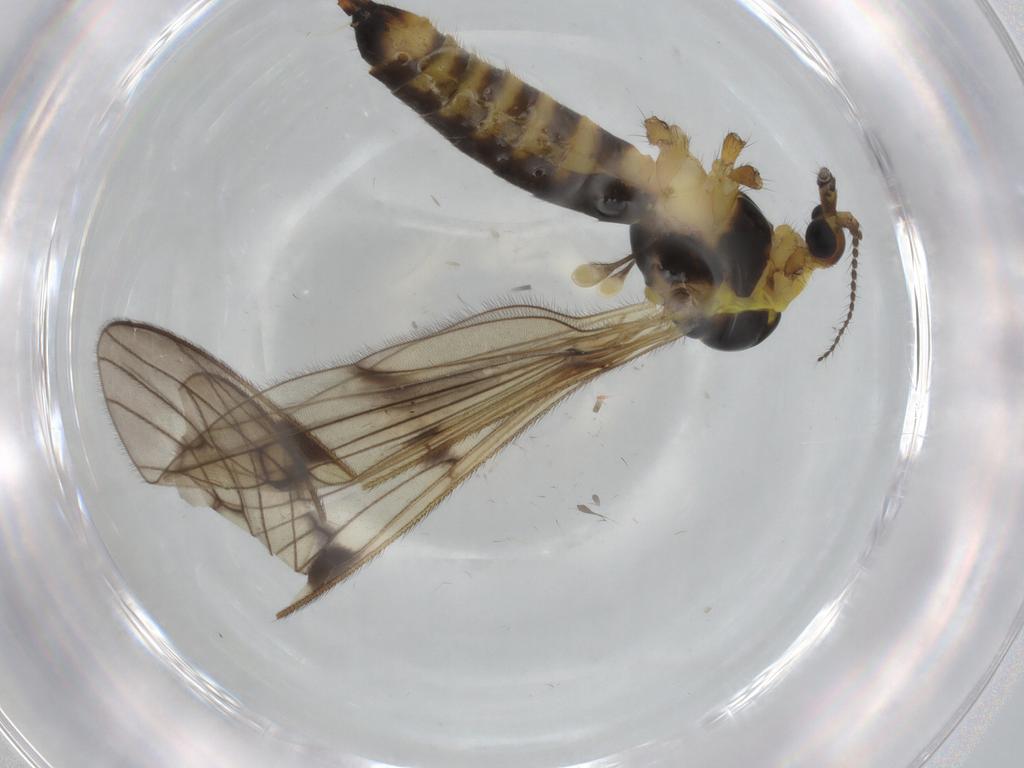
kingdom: Animalia
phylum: Arthropoda
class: Insecta
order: Diptera
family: Limoniidae
